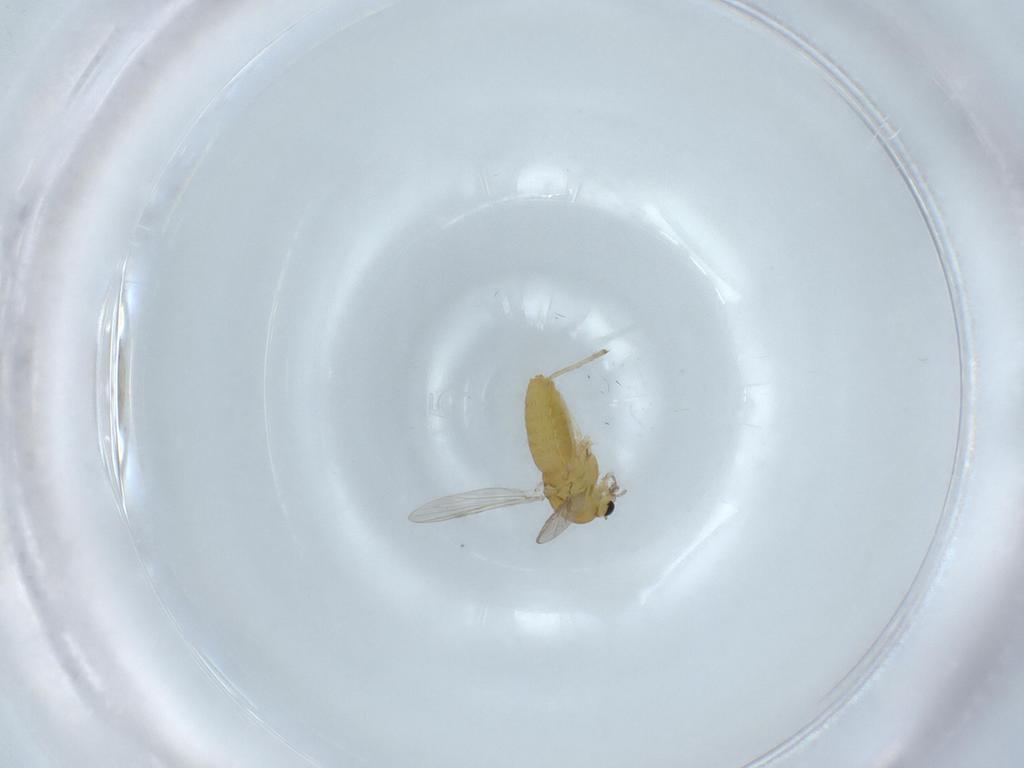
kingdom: Animalia
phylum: Arthropoda
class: Insecta
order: Diptera
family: Chironomidae
